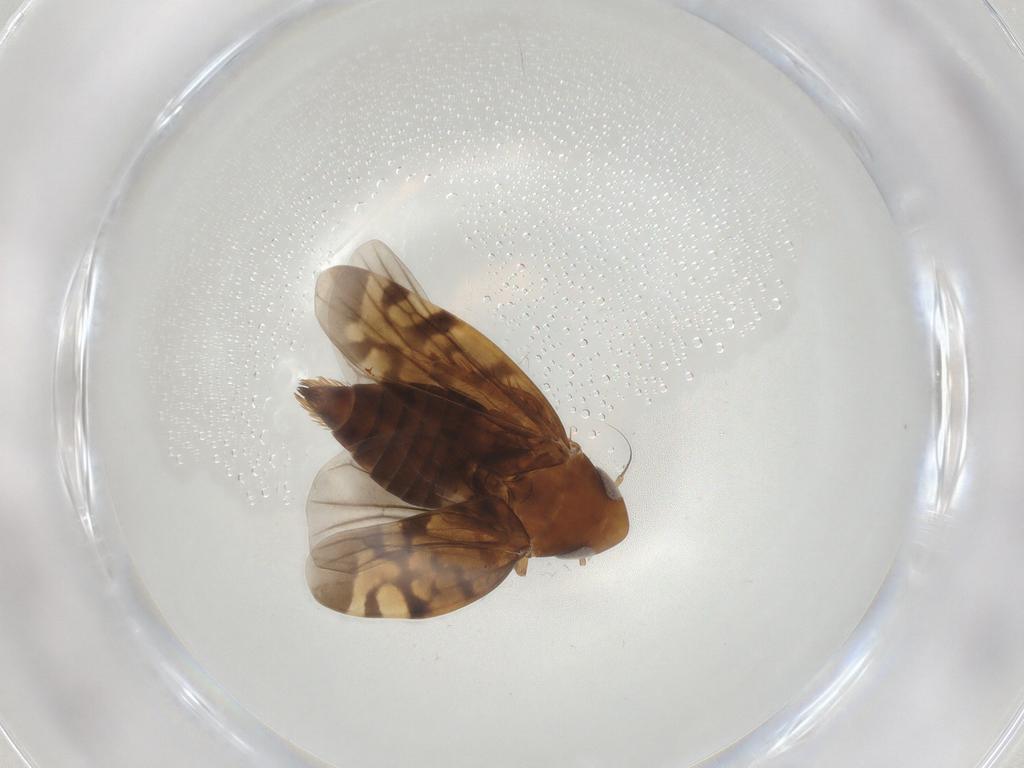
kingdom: Animalia
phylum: Arthropoda
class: Insecta
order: Hemiptera
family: Cicadellidae
